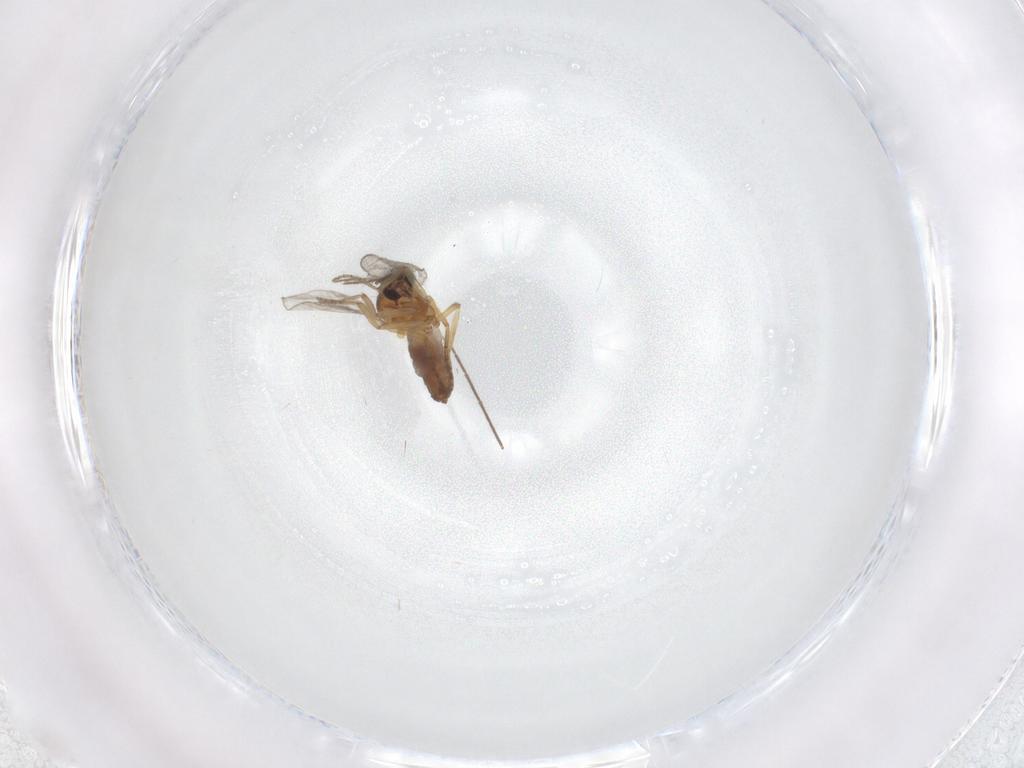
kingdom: Animalia
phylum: Arthropoda
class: Insecta
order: Diptera
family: Chironomidae
